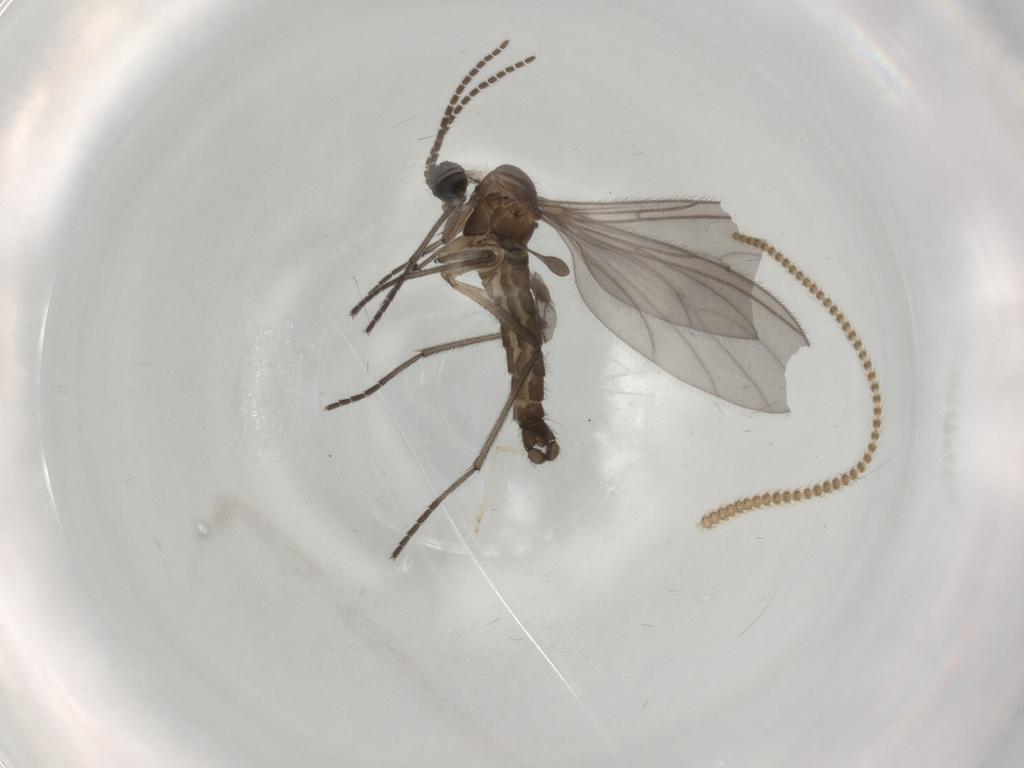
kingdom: Animalia
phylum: Arthropoda
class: Insecta
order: Diptera
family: Sciaridae
